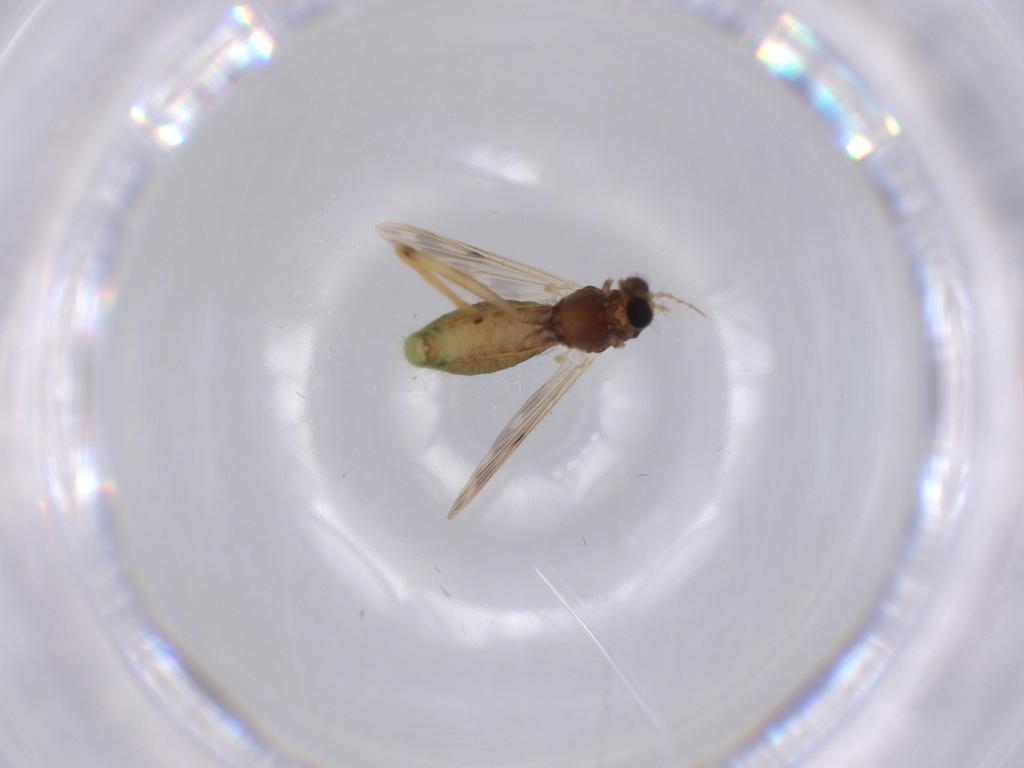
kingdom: Animalia
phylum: Arthropoda
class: Insecta
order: Diptera
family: Chironomidae
